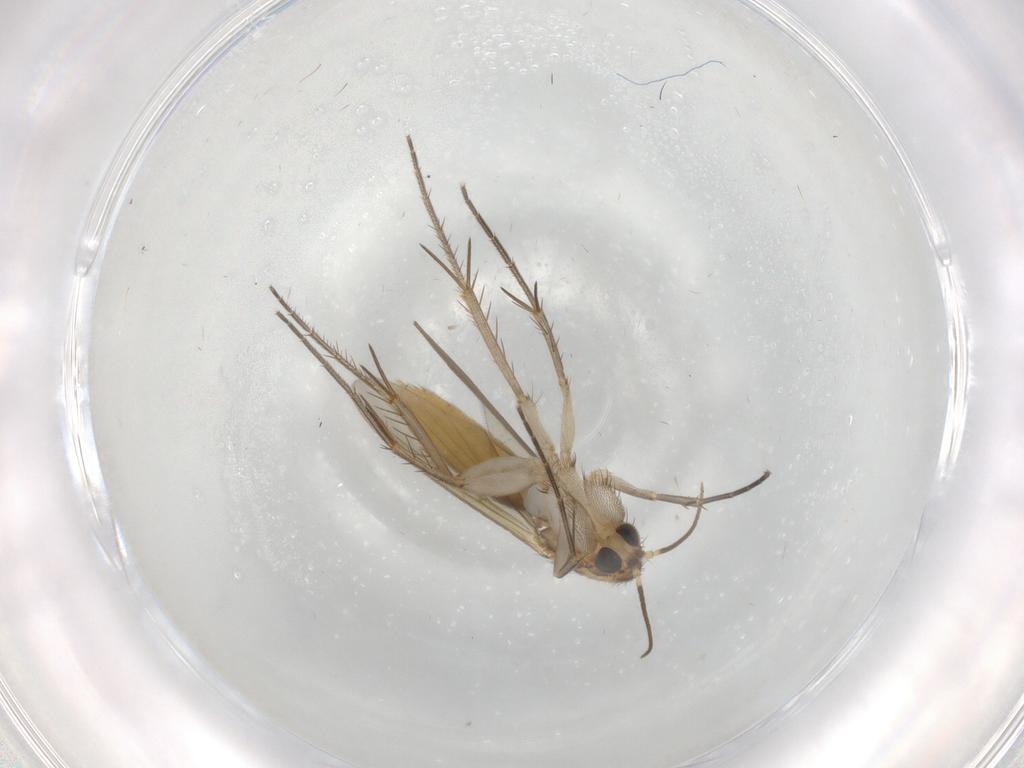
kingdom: Animalia
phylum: Arthropoda
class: Insecta
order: Diptera
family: Mycetophilidae
